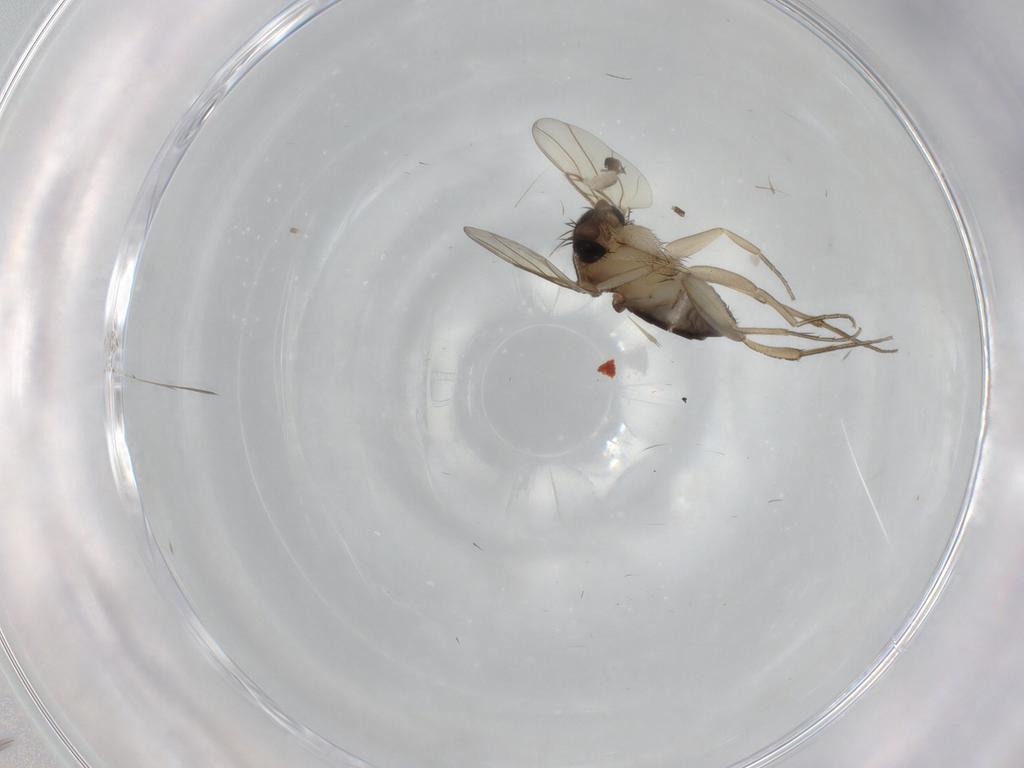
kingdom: Animalia
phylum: Arthropoda
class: Insecta
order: Diptera
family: Phoridae
